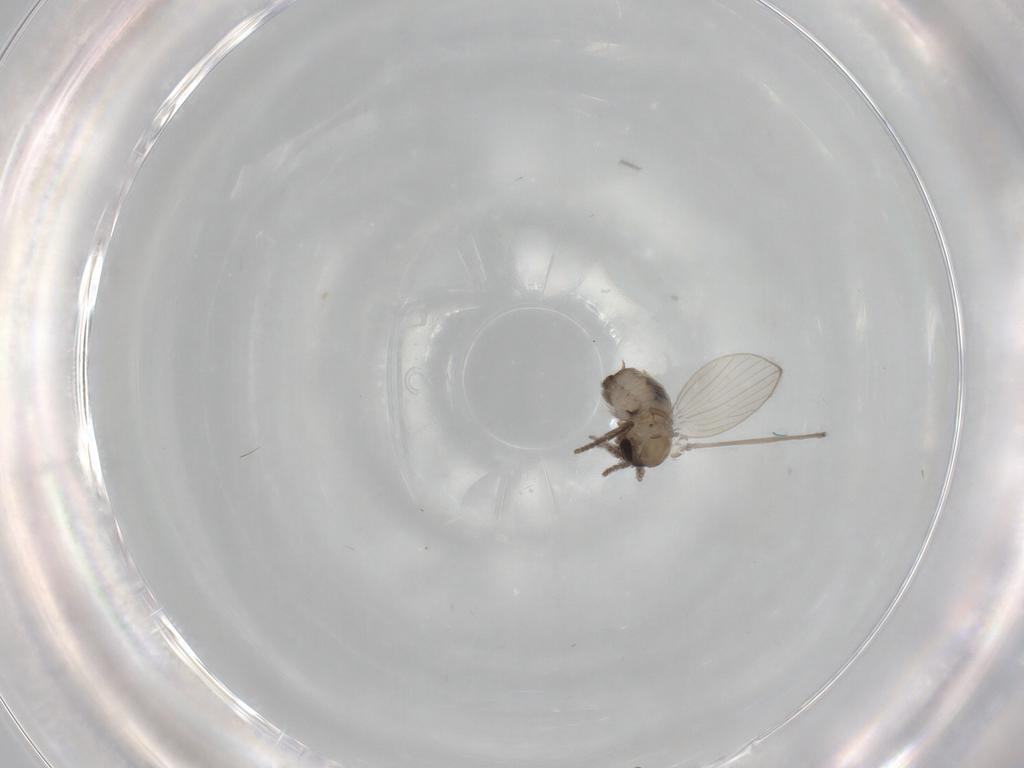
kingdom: Animalia
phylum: Arthropoda
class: Insecta
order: Diptera
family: Psychodidae
